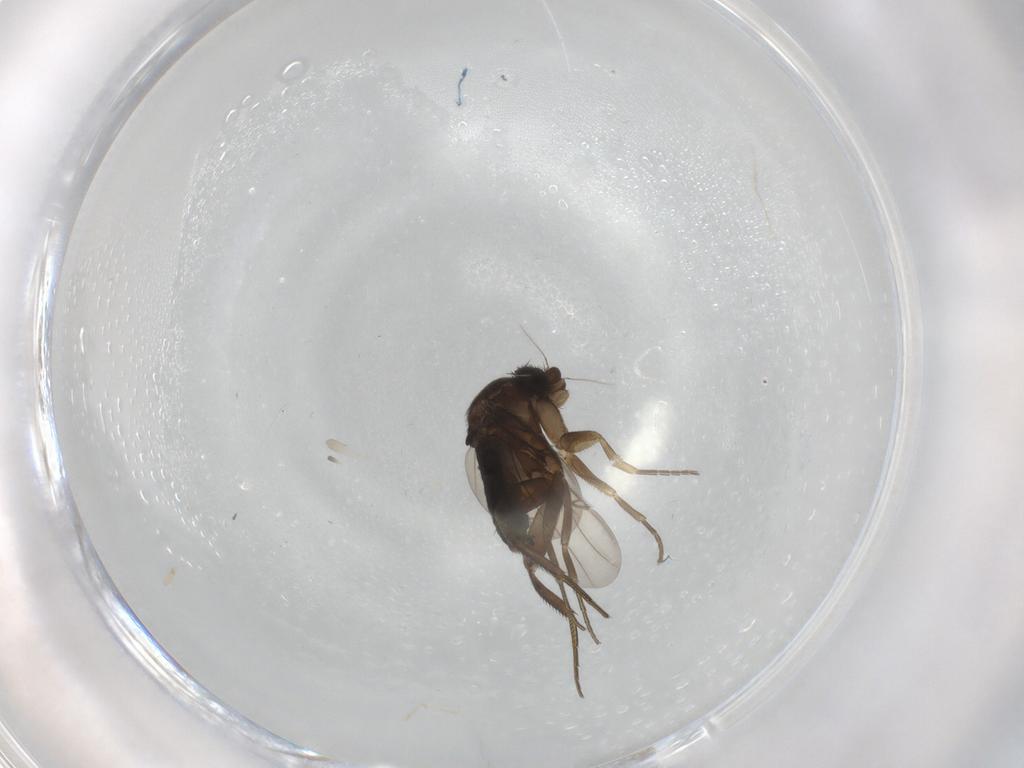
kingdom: Animalia
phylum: Arthropoda
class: Insecta
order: Diptera
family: Phoridae
